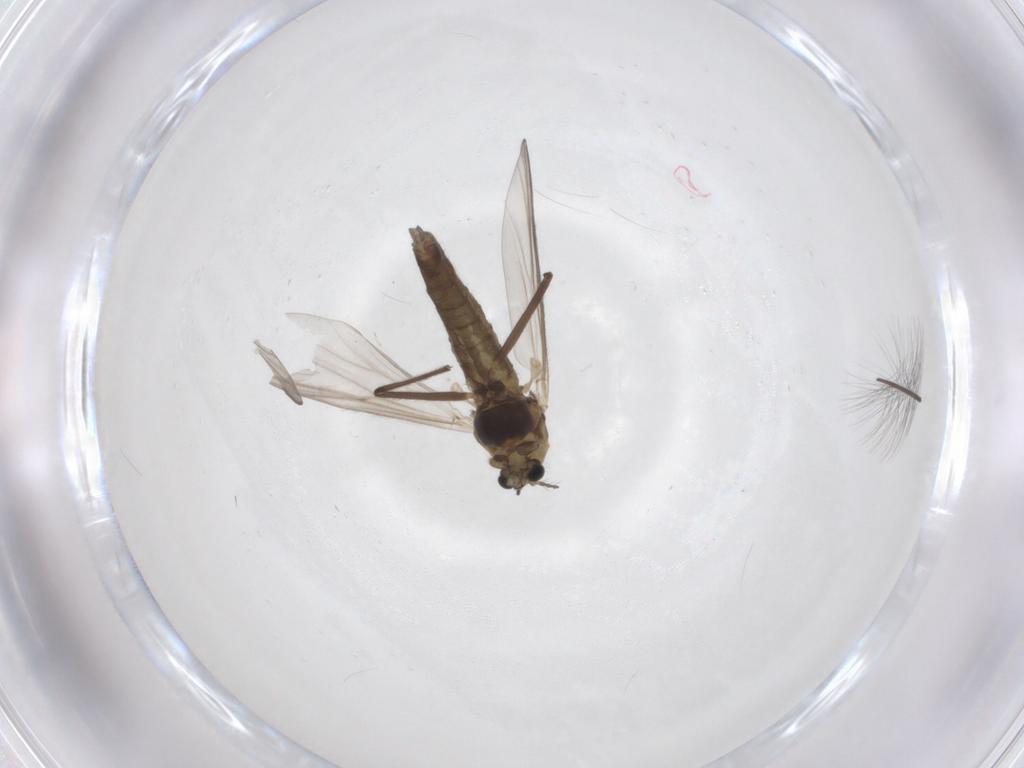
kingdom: Animalia
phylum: Arthropoda
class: Insecta
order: Diptera
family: Chironomidae
